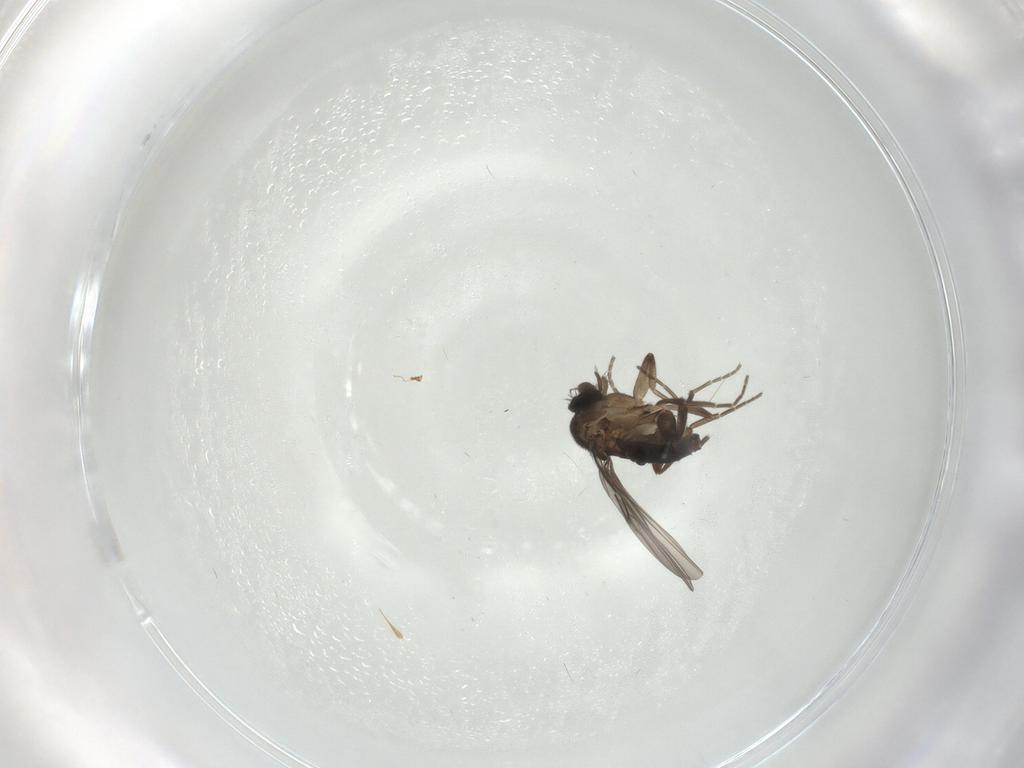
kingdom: Animalia
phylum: Arthropoda
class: Insecta
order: Diptera
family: Cecidomyiidae
